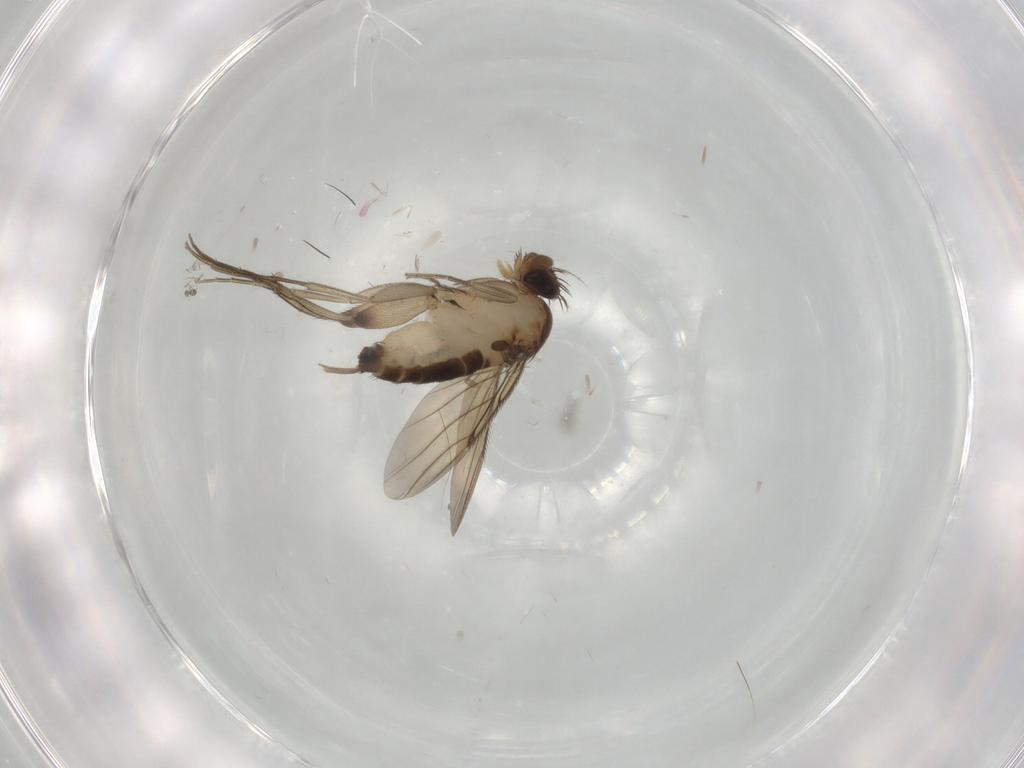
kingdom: Animalia
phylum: Arthropoda
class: Insecta
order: Diptera
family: Phoridae
